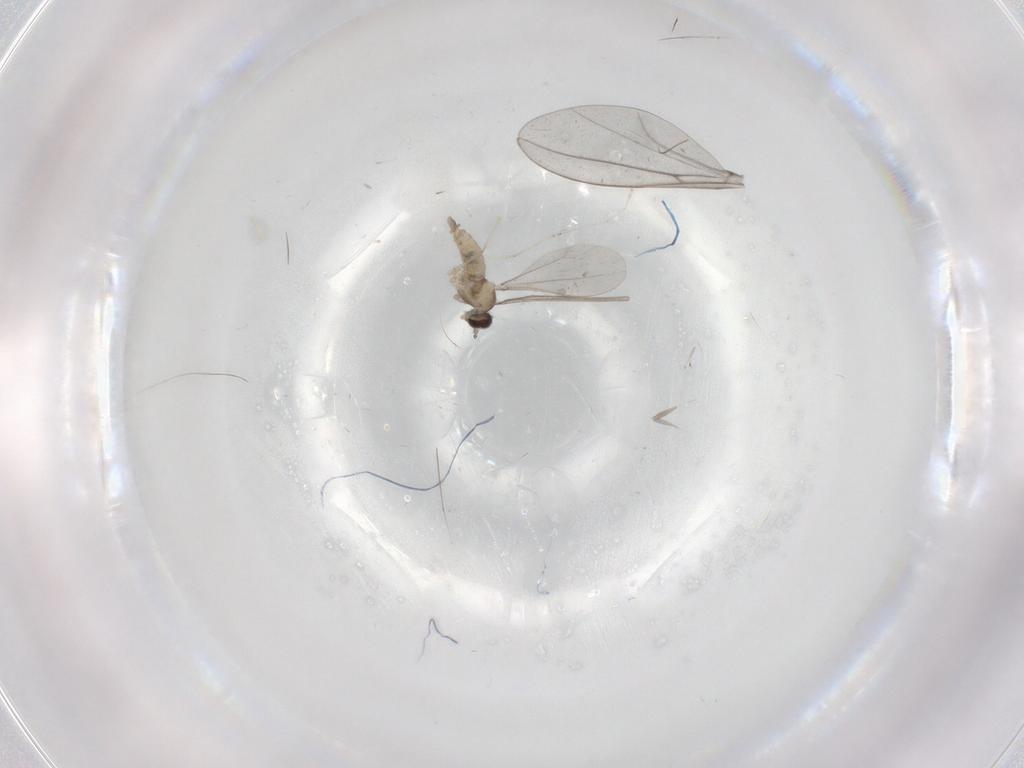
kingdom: Animalia
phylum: Arthropoda
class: Insecta
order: Diptera
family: Cecidomyiidae
